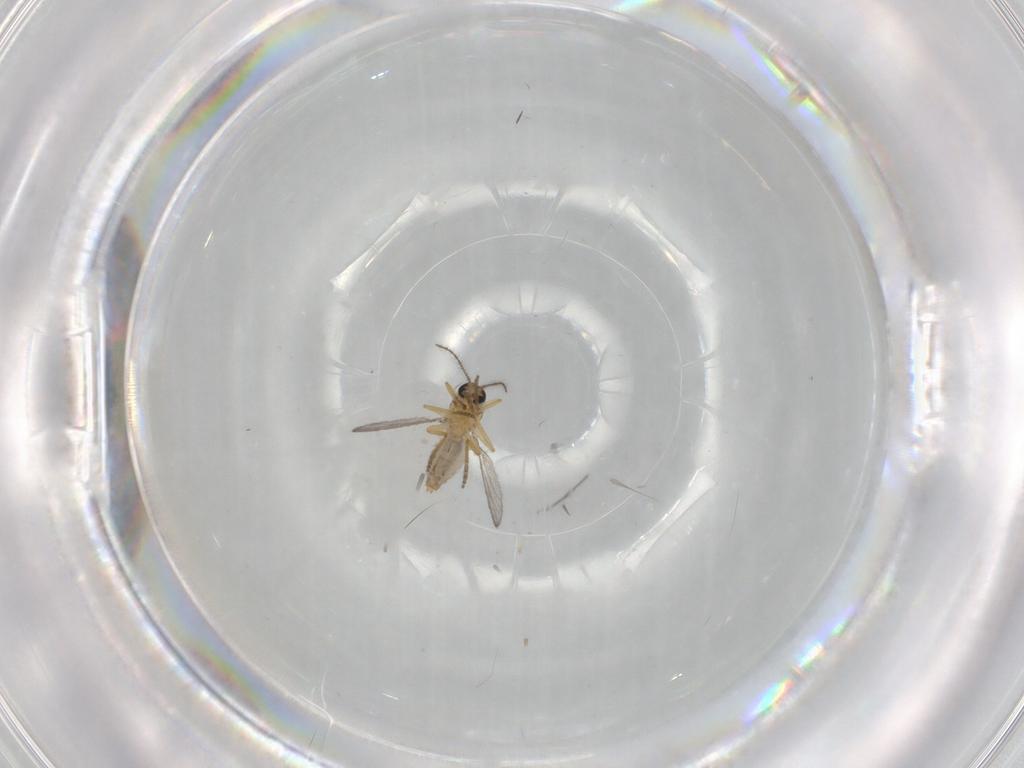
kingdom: Animalia
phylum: Arthropoda
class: Insecta
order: Diptera
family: Ceratopogonidae
